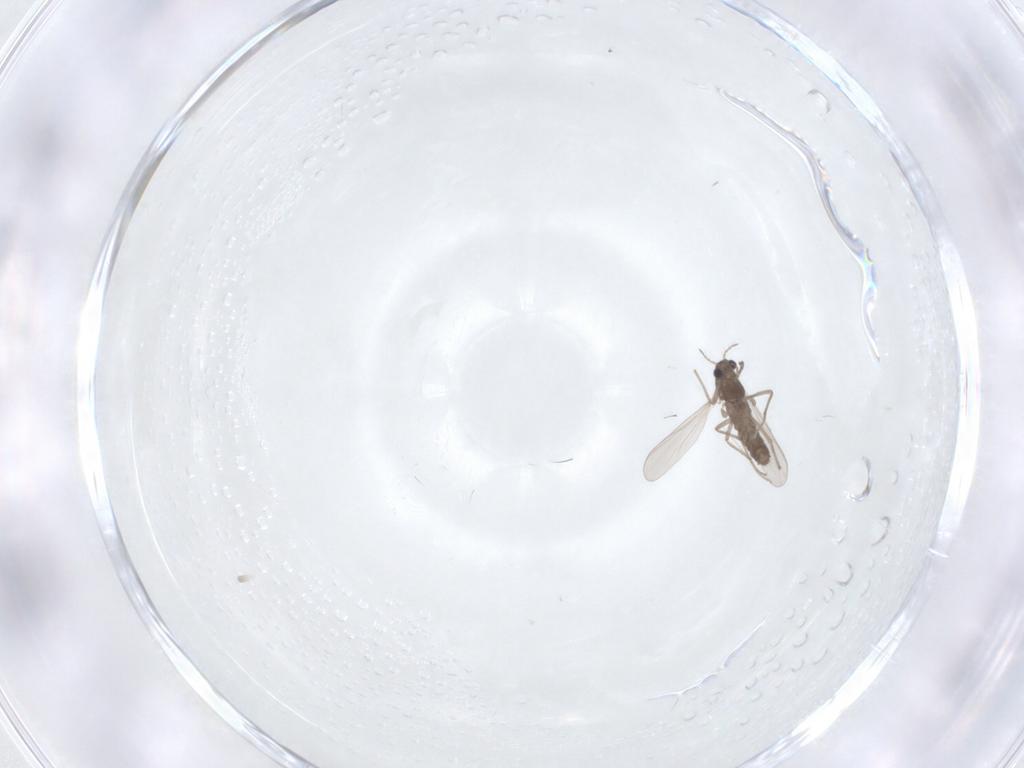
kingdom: Animalia
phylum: Arthropoda
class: Insecta
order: Diptera
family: Chironomidae
